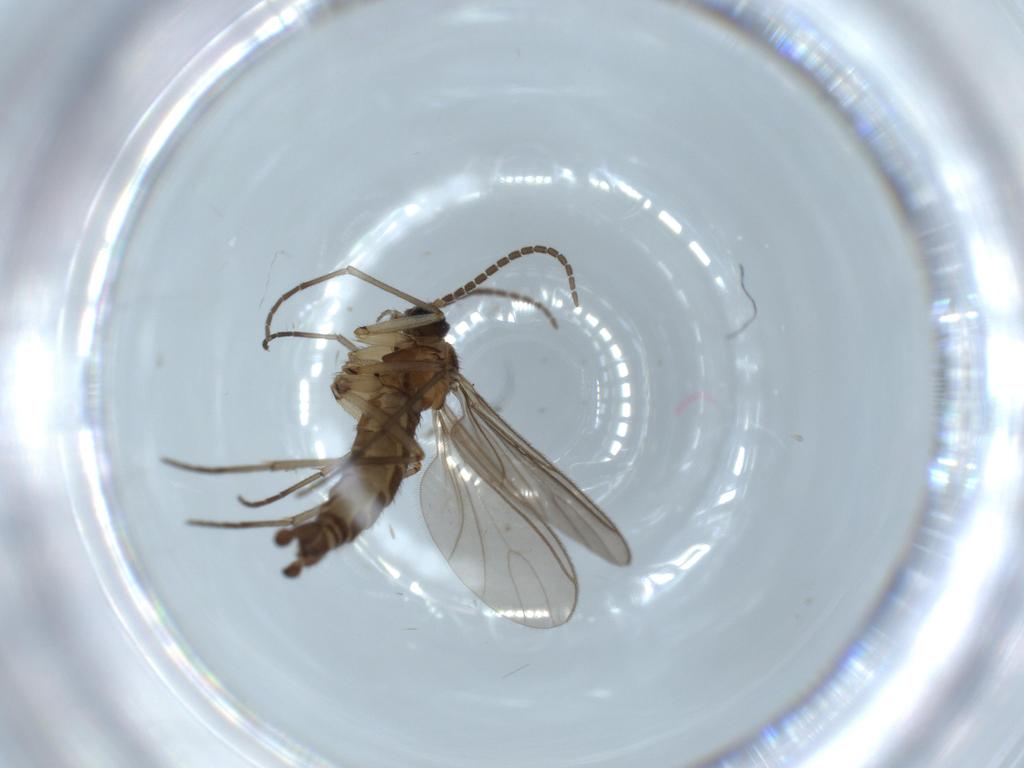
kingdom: Animalia
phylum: Arthropoda
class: Insecta
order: Diptera
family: Sciaridae
